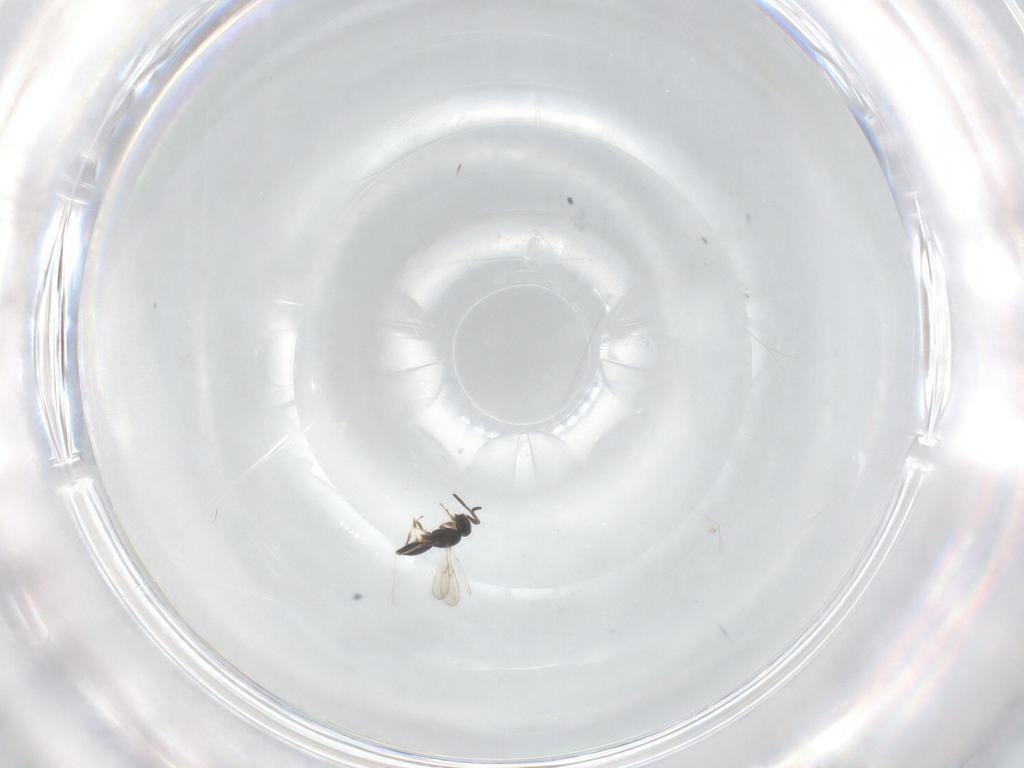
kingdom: Animalia
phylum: Arthropoda
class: Insecta
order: Hymenoptera
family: Scelionidae
